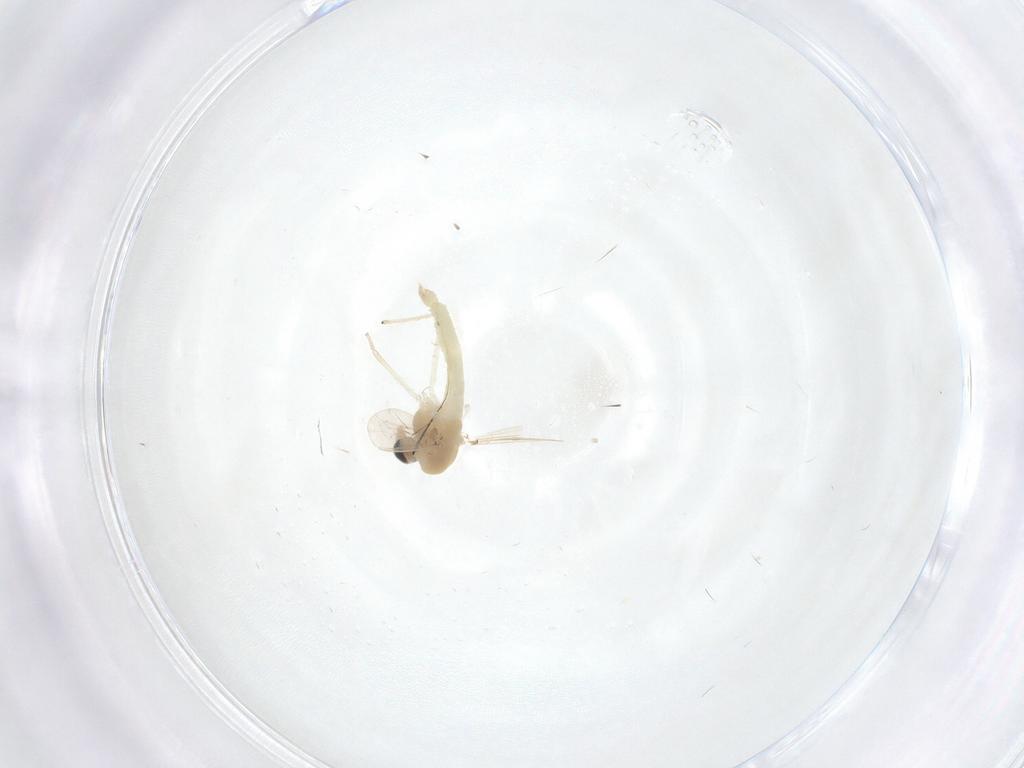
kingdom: Animalia
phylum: Arthropoda
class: Insecta
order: Diptera
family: Chironomidae
